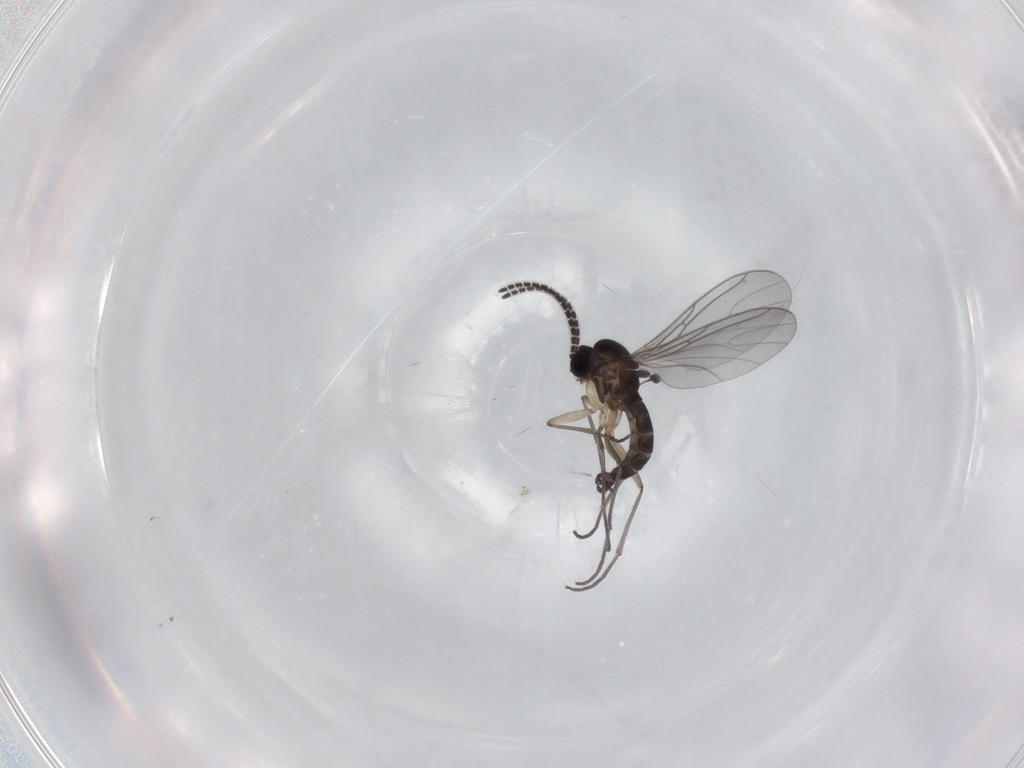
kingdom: Animalia
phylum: Arthropoda
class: Insecta
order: Diptera
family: Sciaridae
